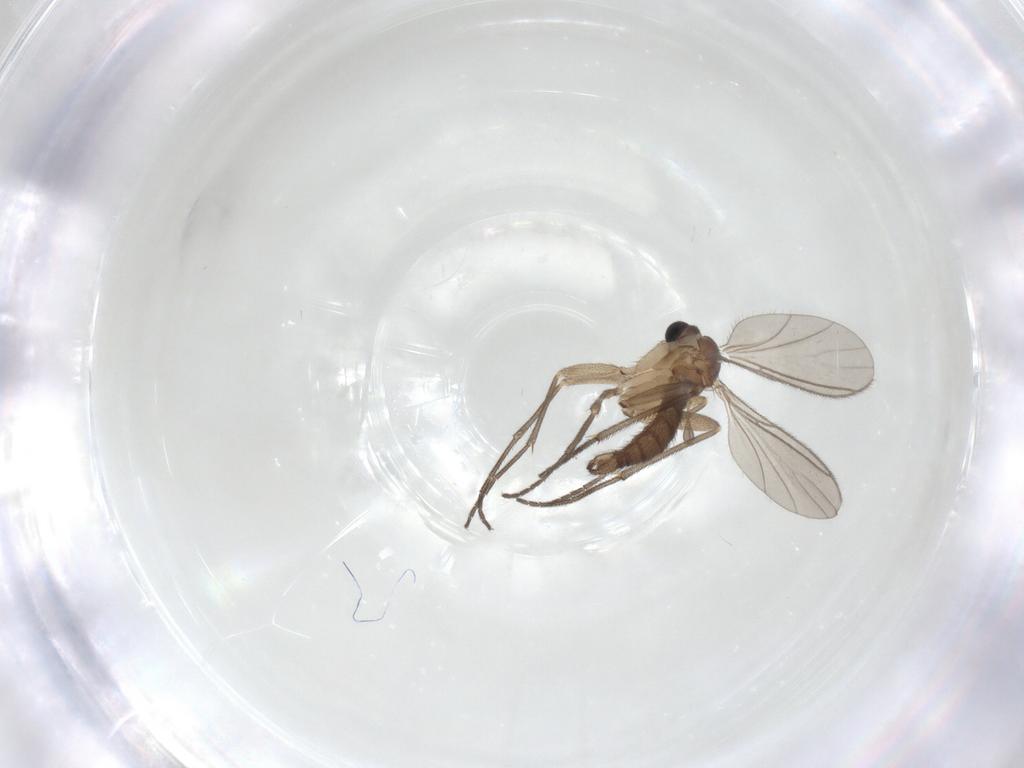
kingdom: Animalia
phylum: Arthropoda
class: Insecta
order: Diptera
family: Sciaridae
